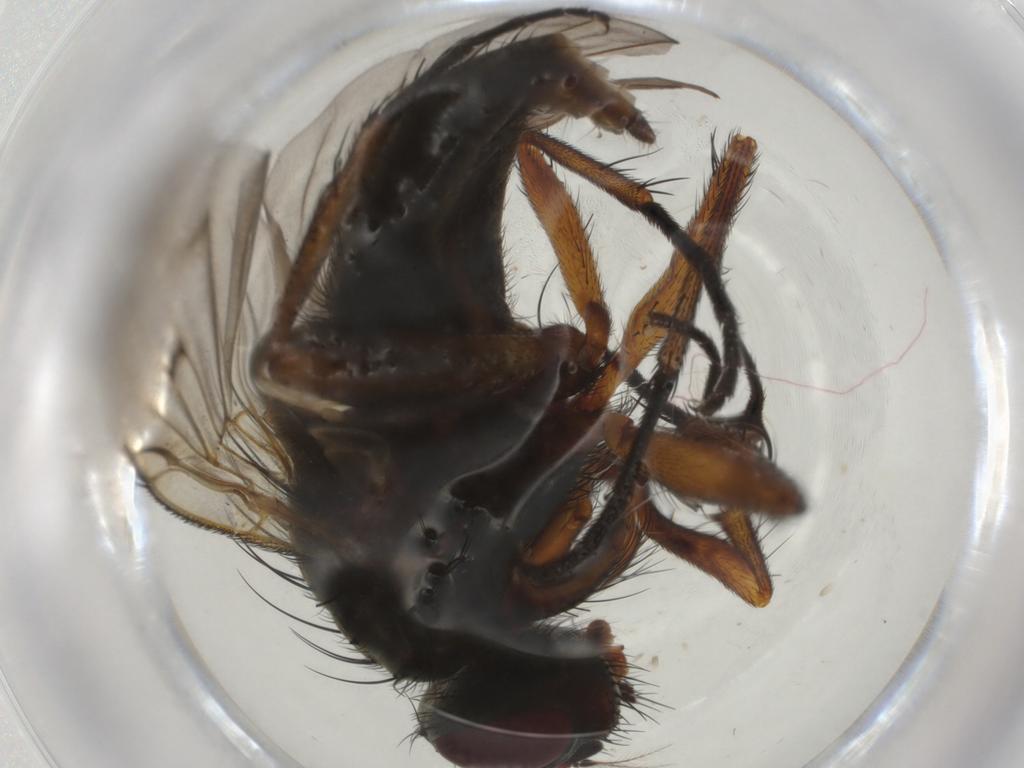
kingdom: Animalia
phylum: Arthropoda
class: Insecta
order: Diptera
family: Muscidae
